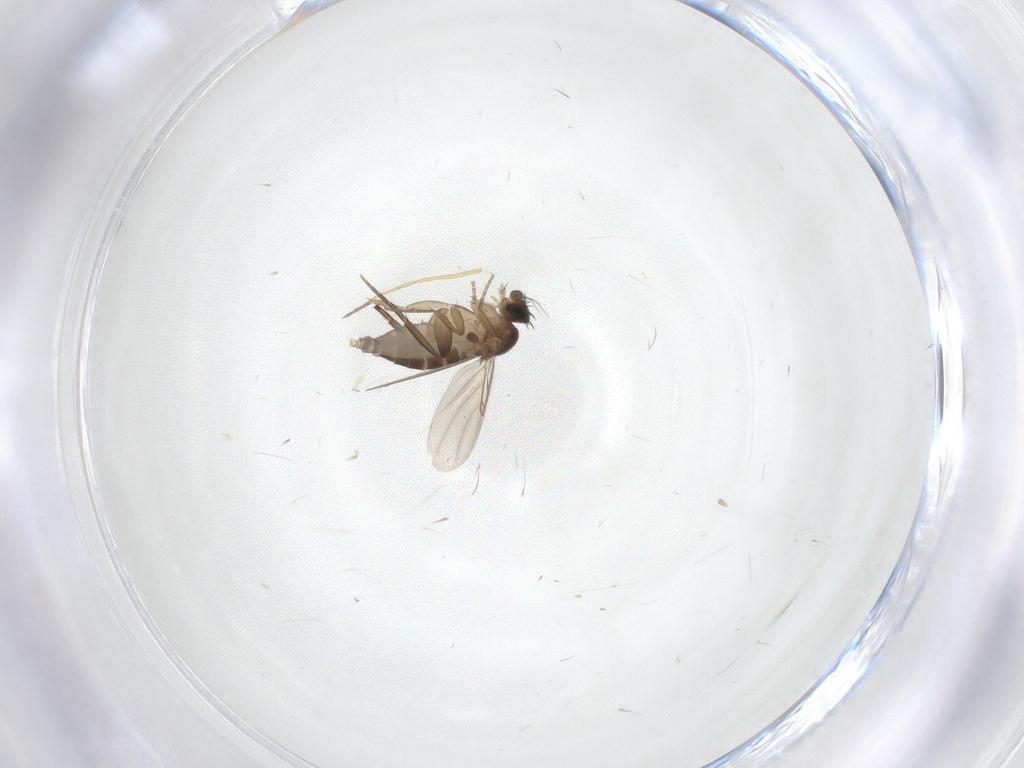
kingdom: Animalia
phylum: Arthropoda
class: Insecta
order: Diptera
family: Phoridae
